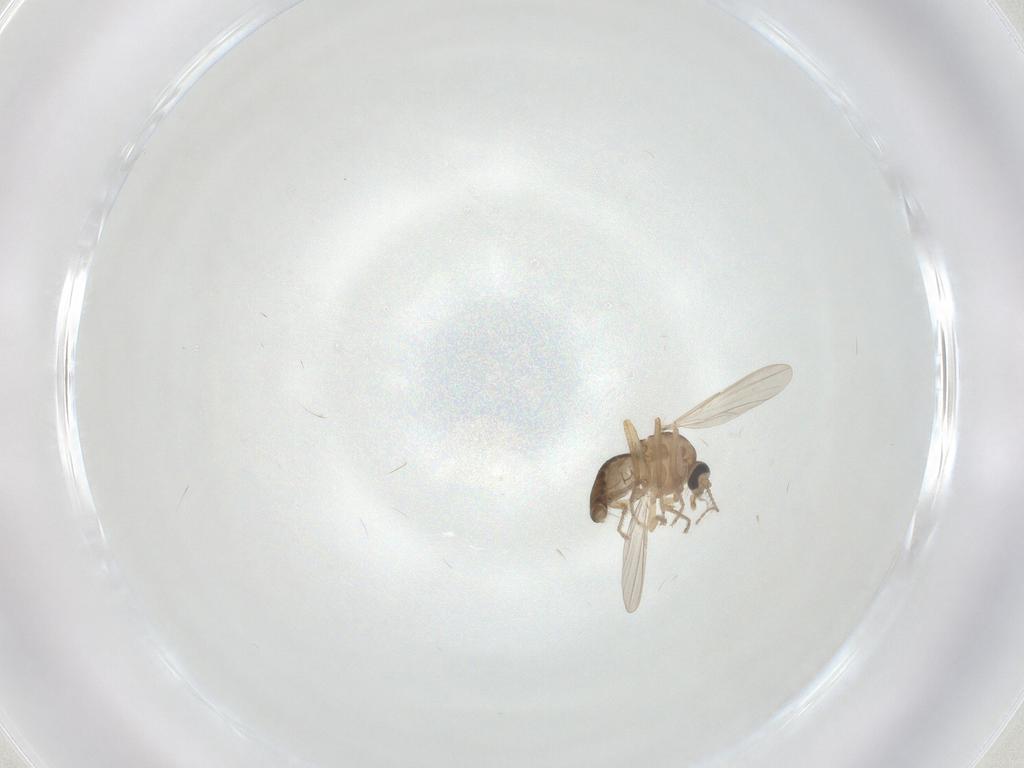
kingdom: Animalia
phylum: Arthropoda
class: Insecta
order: Diptera
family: Ceratopogonidae
